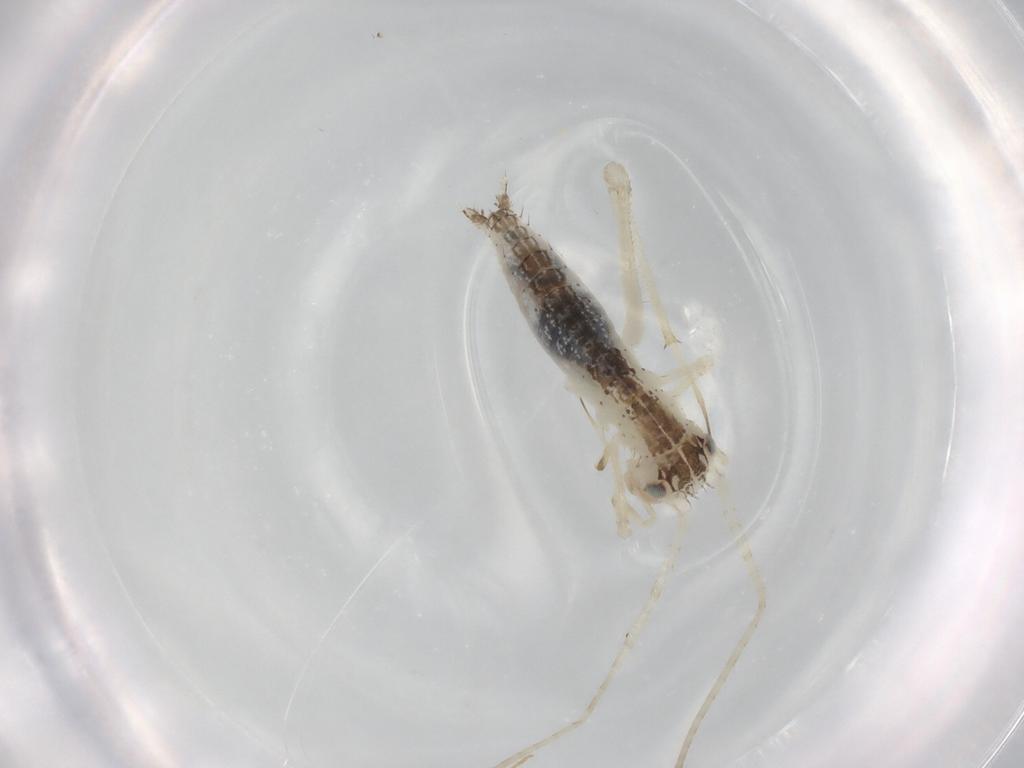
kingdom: Animalia
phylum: Arthropoda
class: Insecta
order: Orthoptera
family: Oecanthidae
